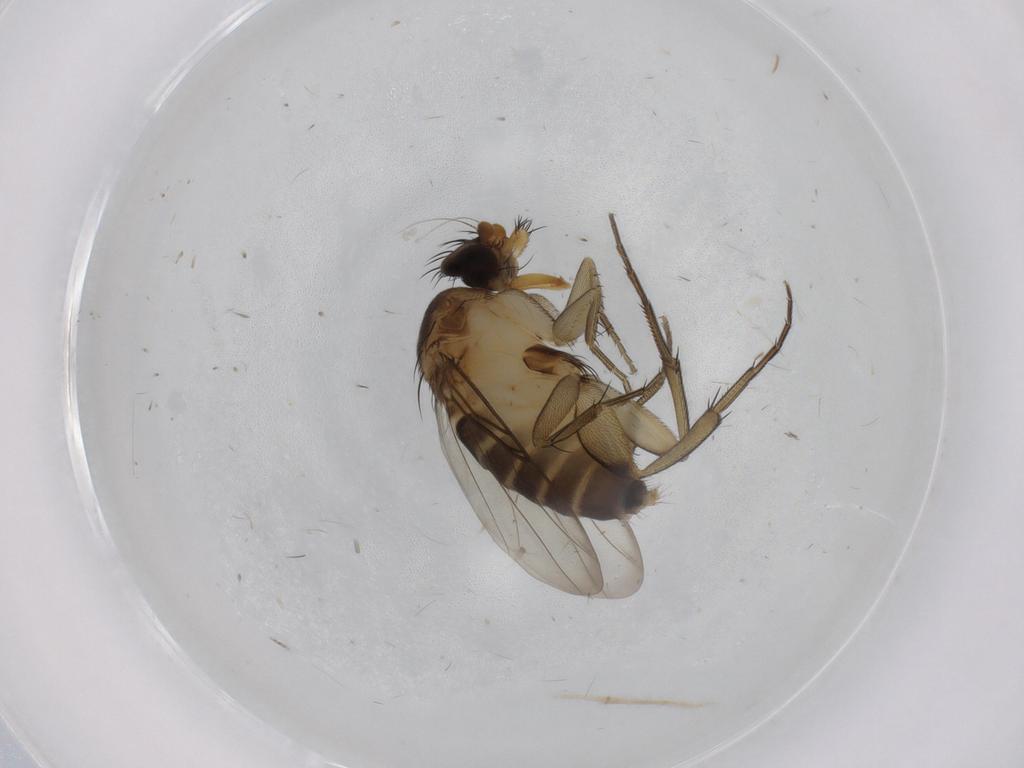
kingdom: Animalia
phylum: Arthropoda
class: Insecta
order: Diptera
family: Phoridae
